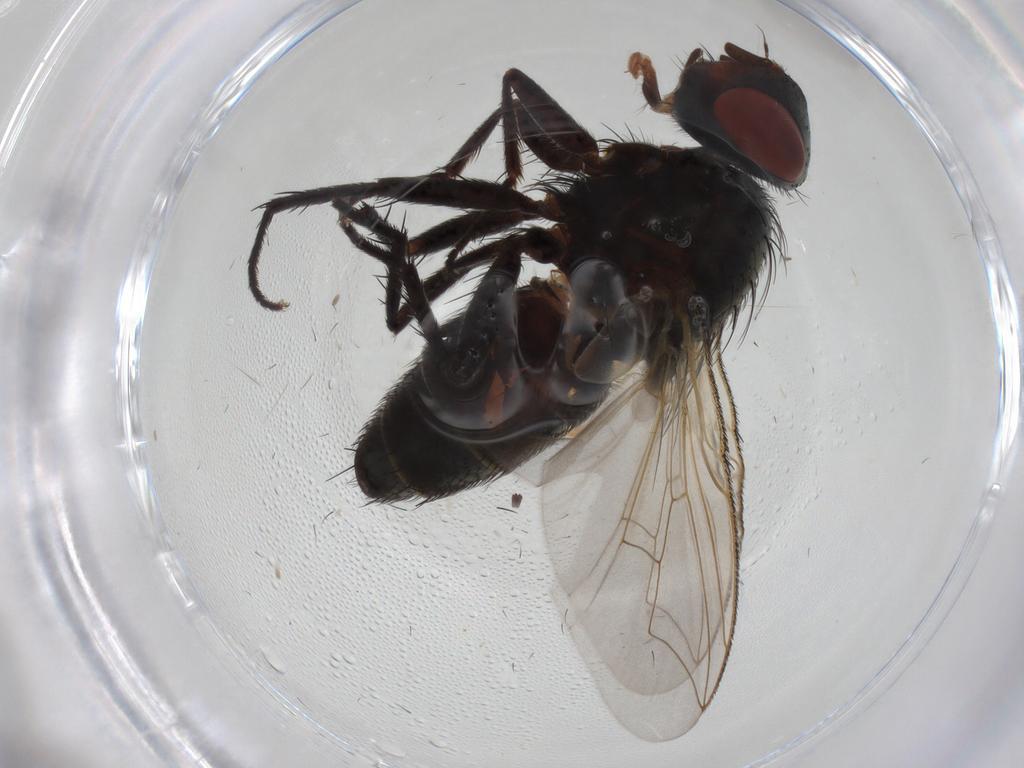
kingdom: Animalia
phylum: Arthropoda
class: Insecta
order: Diptera
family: Sarcophagidae
